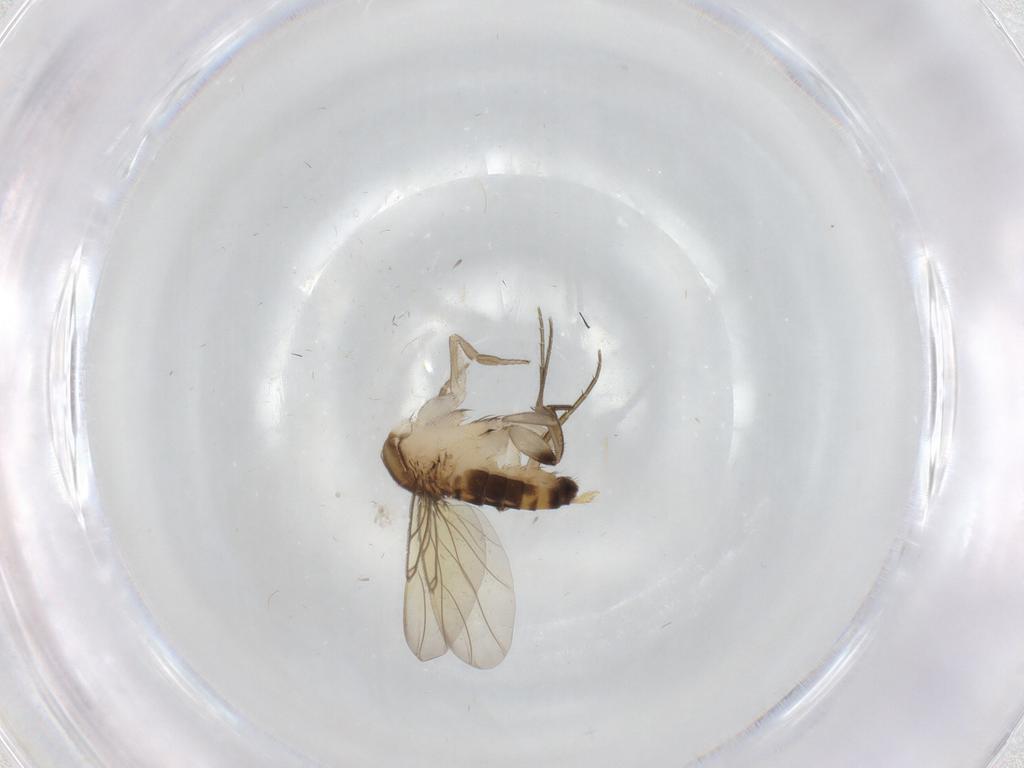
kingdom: Animalia
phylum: Arthropoda
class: Insecta
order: Diptera
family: Phoridae
